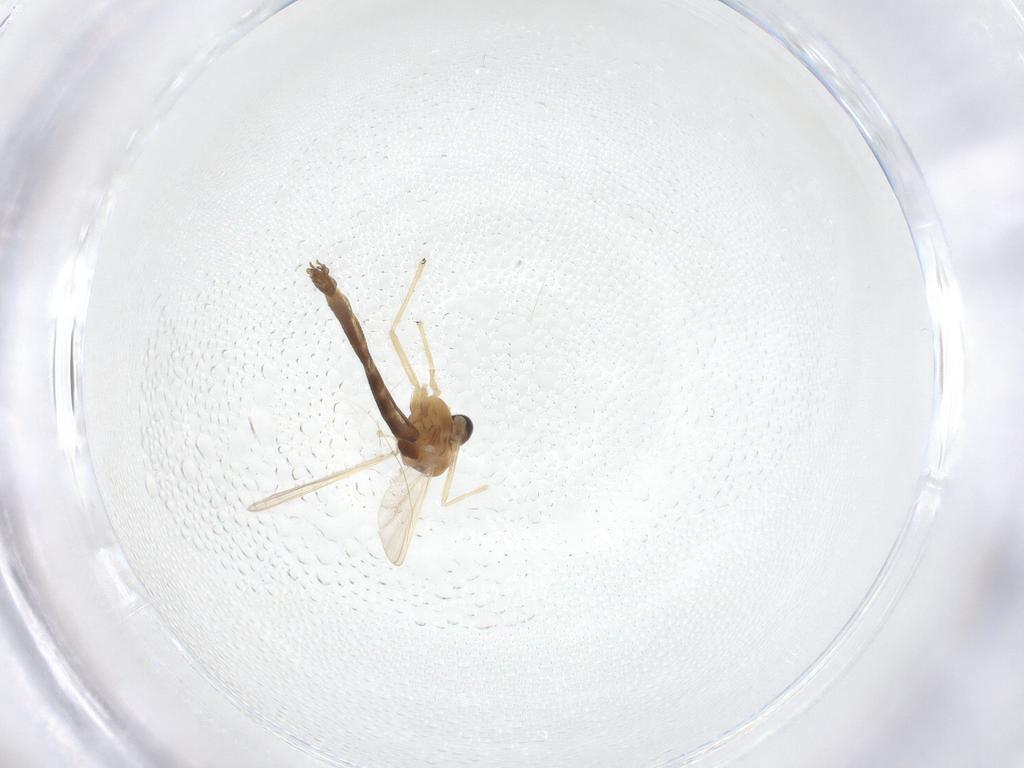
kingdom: Animalia
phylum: Arthropoda
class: Insecta
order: Diptera
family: Chironomidae
